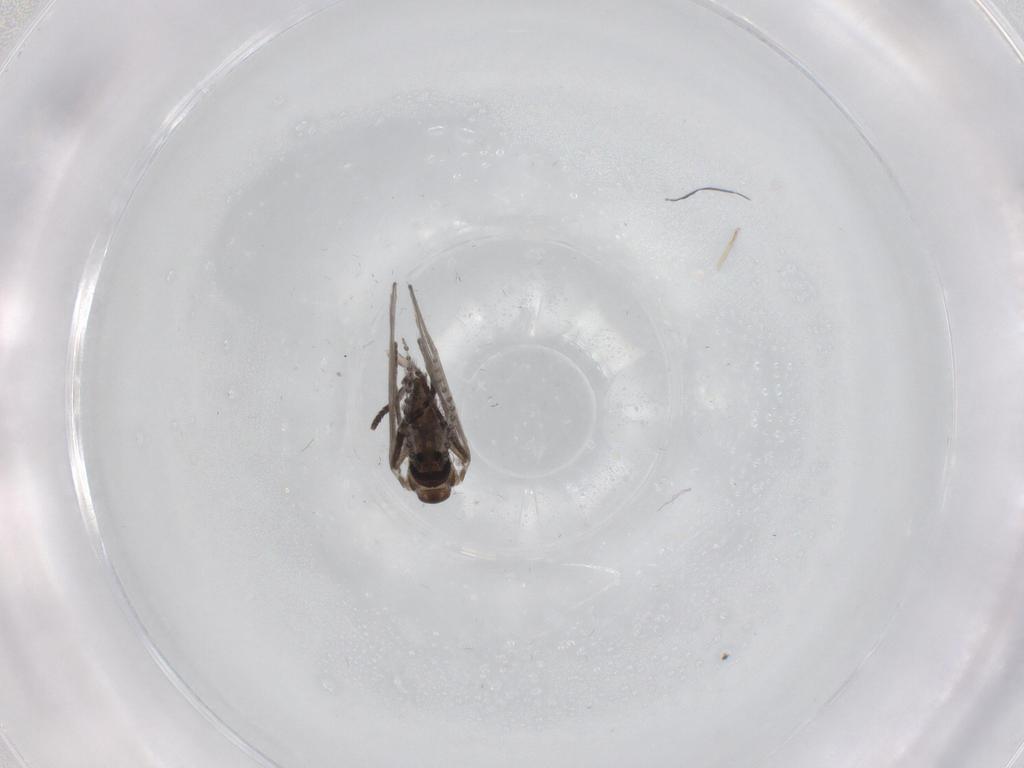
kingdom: Animalia
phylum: Arthropoda
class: Insecta
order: Diptera
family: Psychodidae
